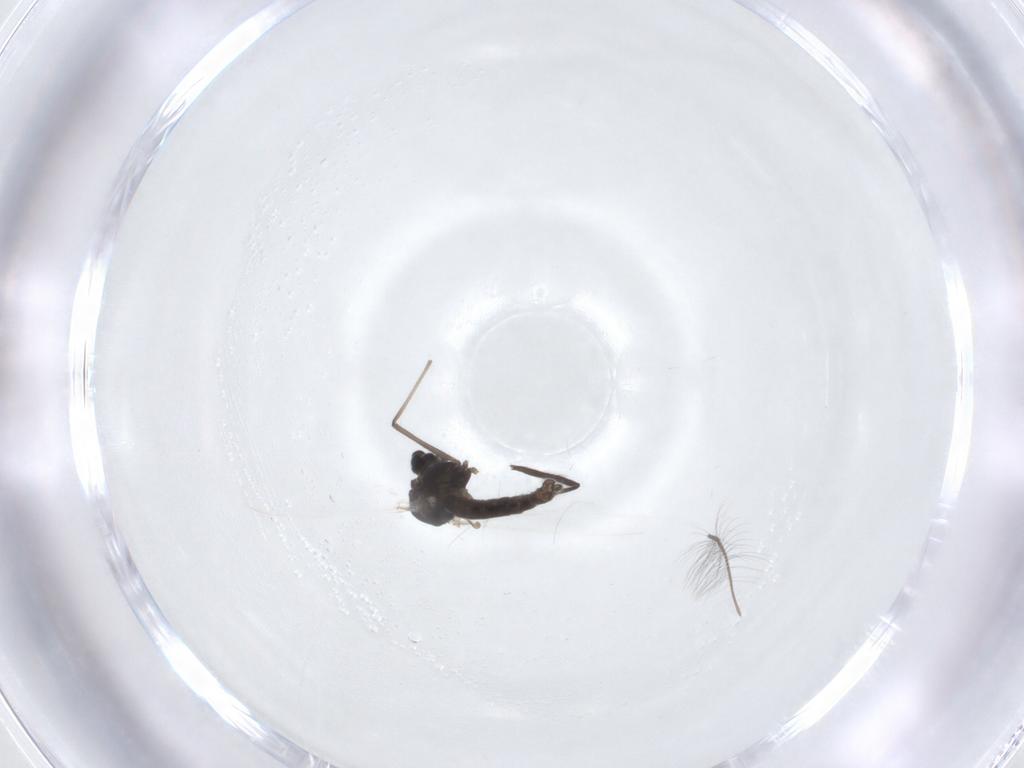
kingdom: Animalia
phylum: Arthropoda
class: Insecta
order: Diptera
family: Chironomidae
